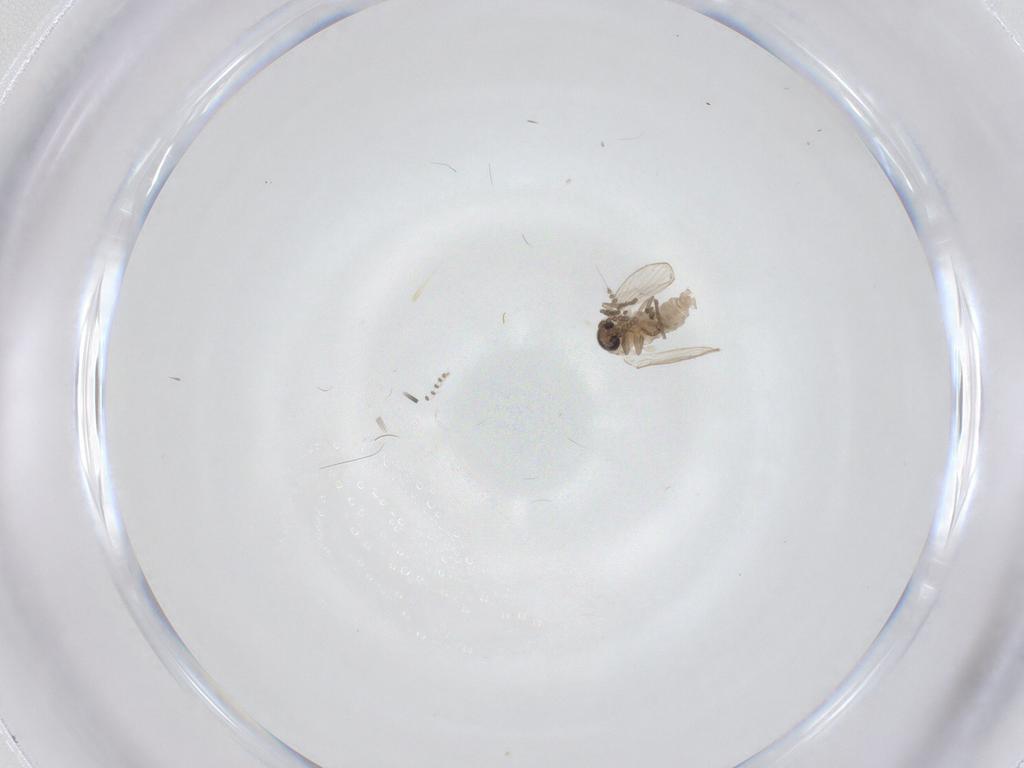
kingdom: Animalia
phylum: Arthropoda
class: Insecta
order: Diptera
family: Psychodidae
